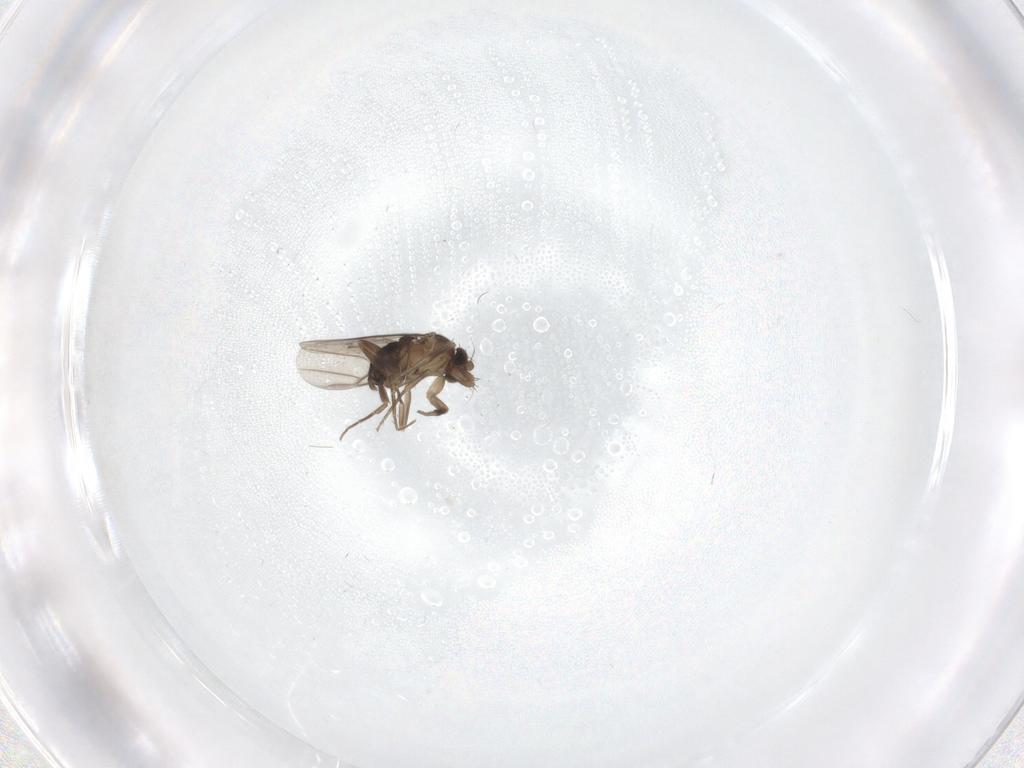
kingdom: Animalia
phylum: Arthropoda
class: Insecta
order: Diptera
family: Phoridae
